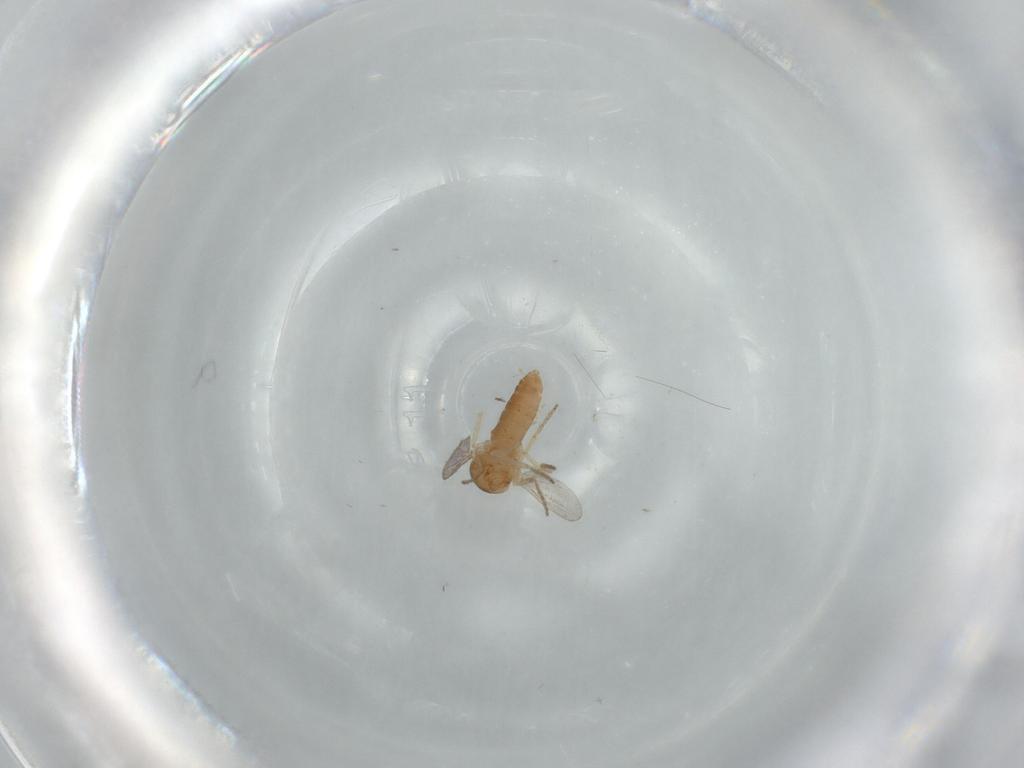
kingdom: Animalia
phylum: Arthropoda
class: Insecta
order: Diptera
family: Ceratopogonidae
